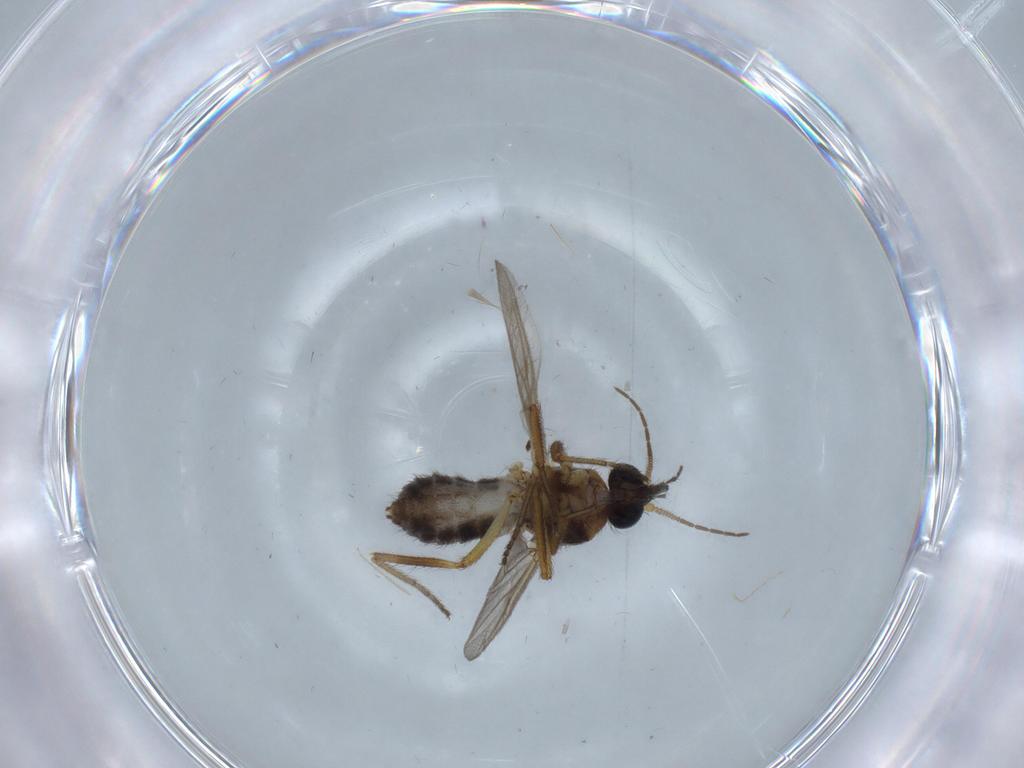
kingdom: Animalia
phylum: Arthropoda
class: Insecta
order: Diptera
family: Ceratopogonidae
